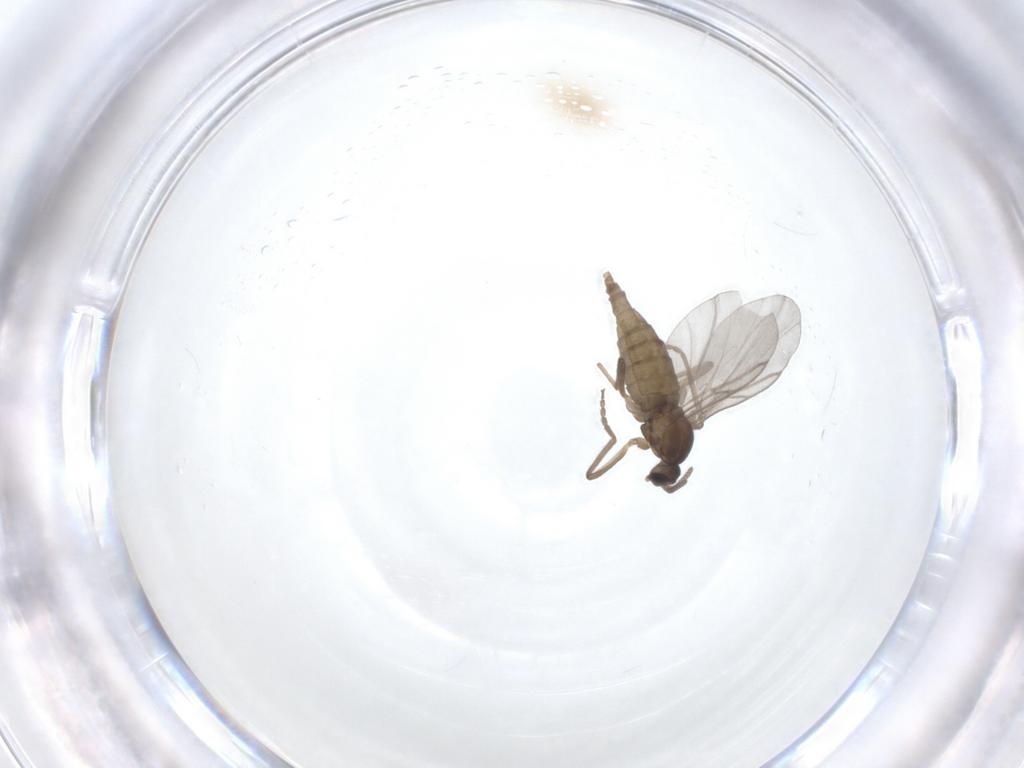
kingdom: Animalia
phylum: Arthropoda
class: Insecta
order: Diptera
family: Cecidomyiidae
